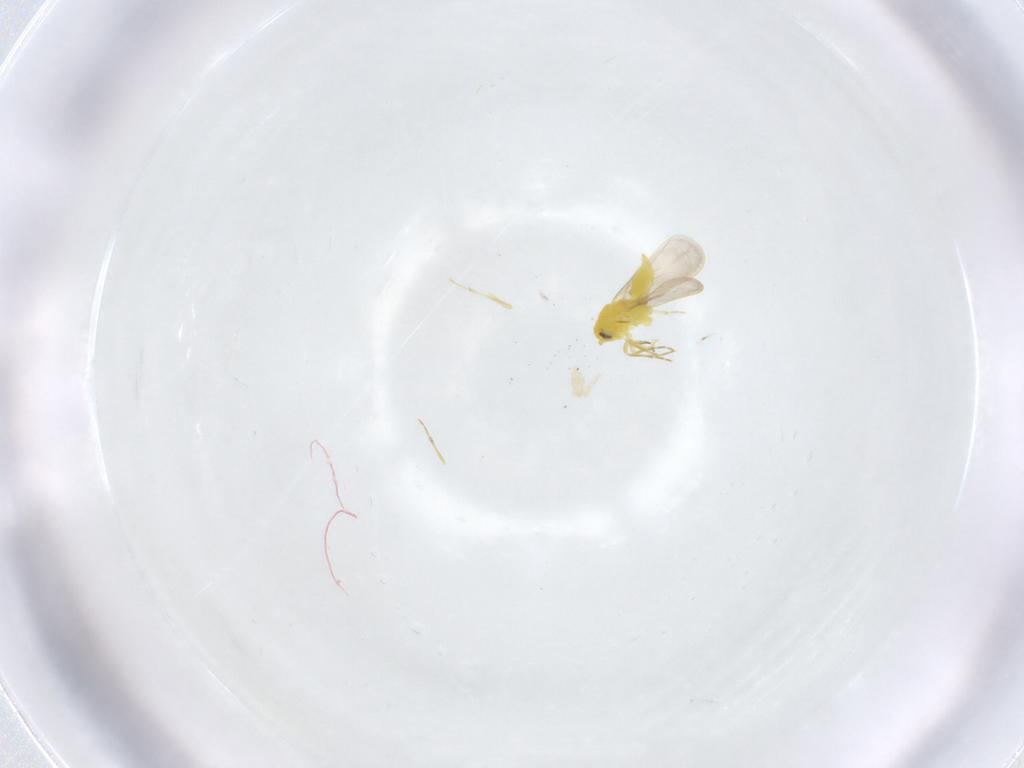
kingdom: Animalia
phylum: Arthropoda
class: Insecta
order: Hemiptera
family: Aleyrodidae
